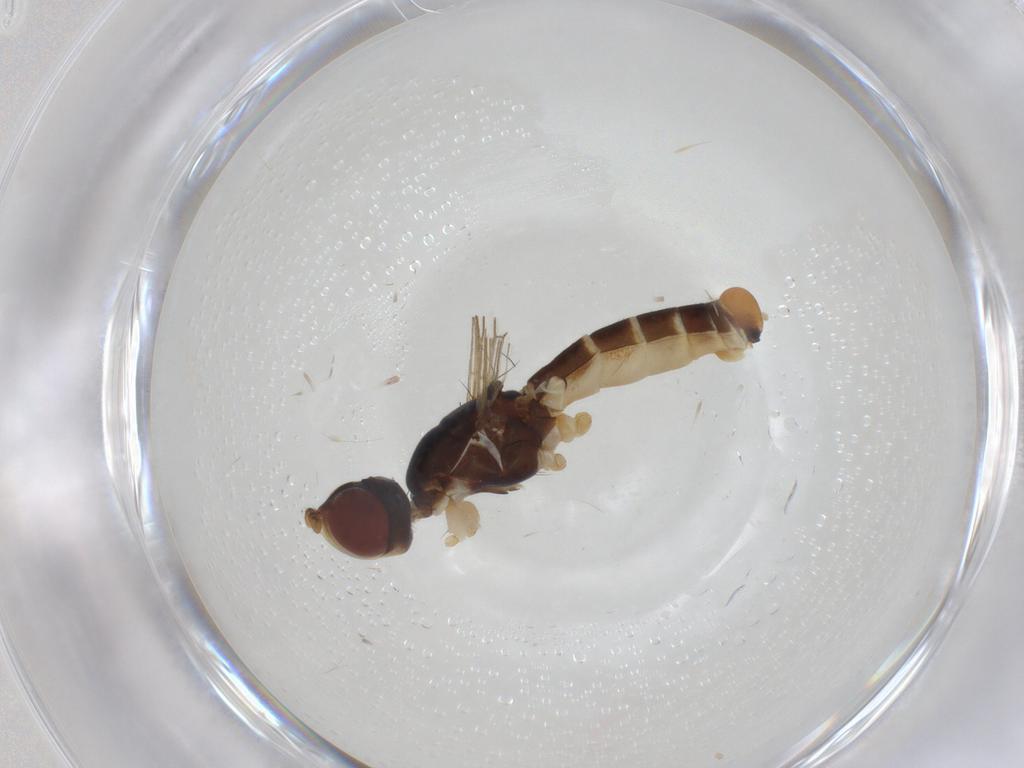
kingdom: Animalia
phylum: Arthropoda
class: Insecta
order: Diptera
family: Micropezidae
